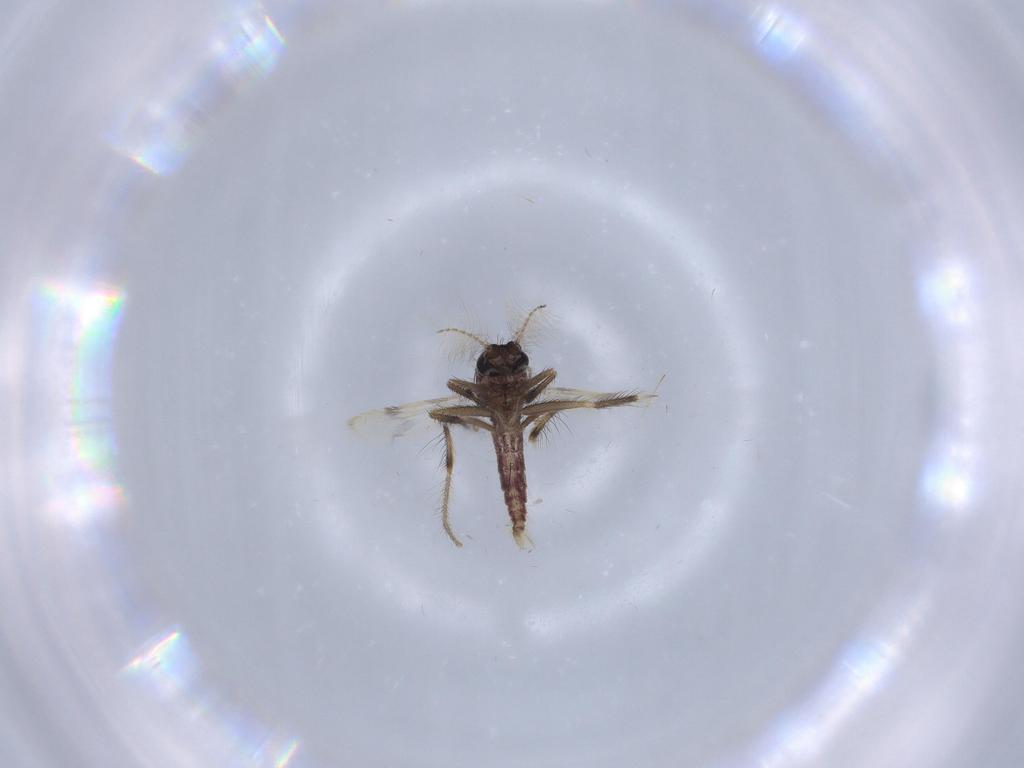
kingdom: Animalia
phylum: Arthropoda
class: Insecta
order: Diptera
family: Corethrellidae
